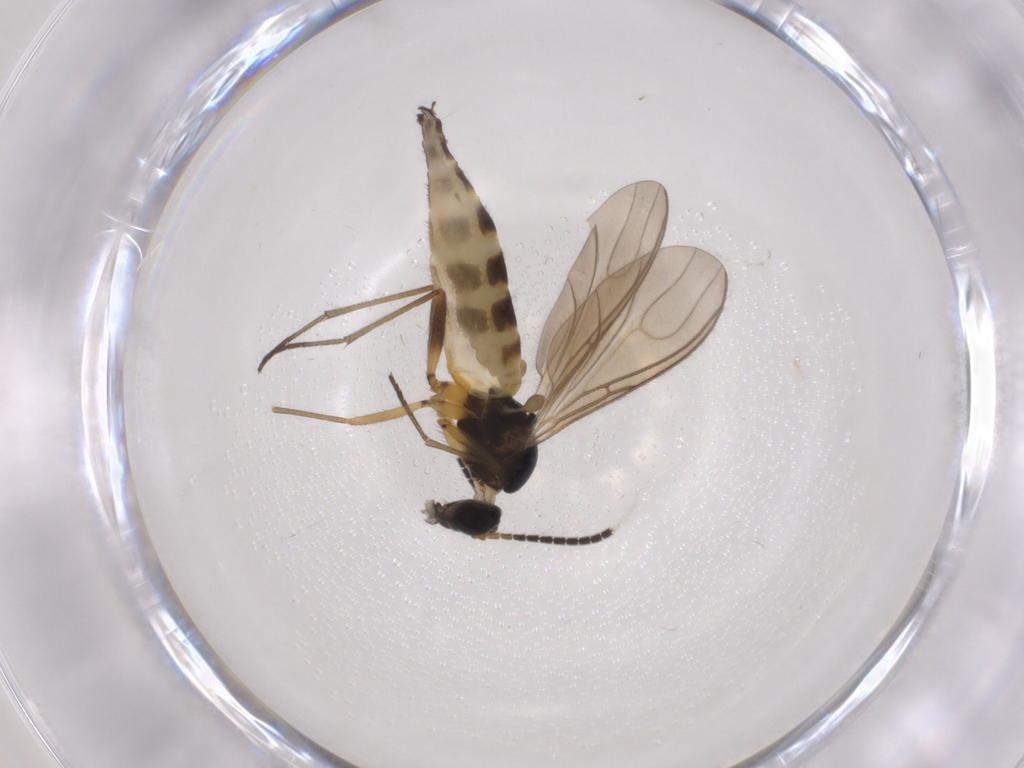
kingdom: Animalia
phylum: Arthropoda
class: Insecta
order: Diptera
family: Sciaridae
